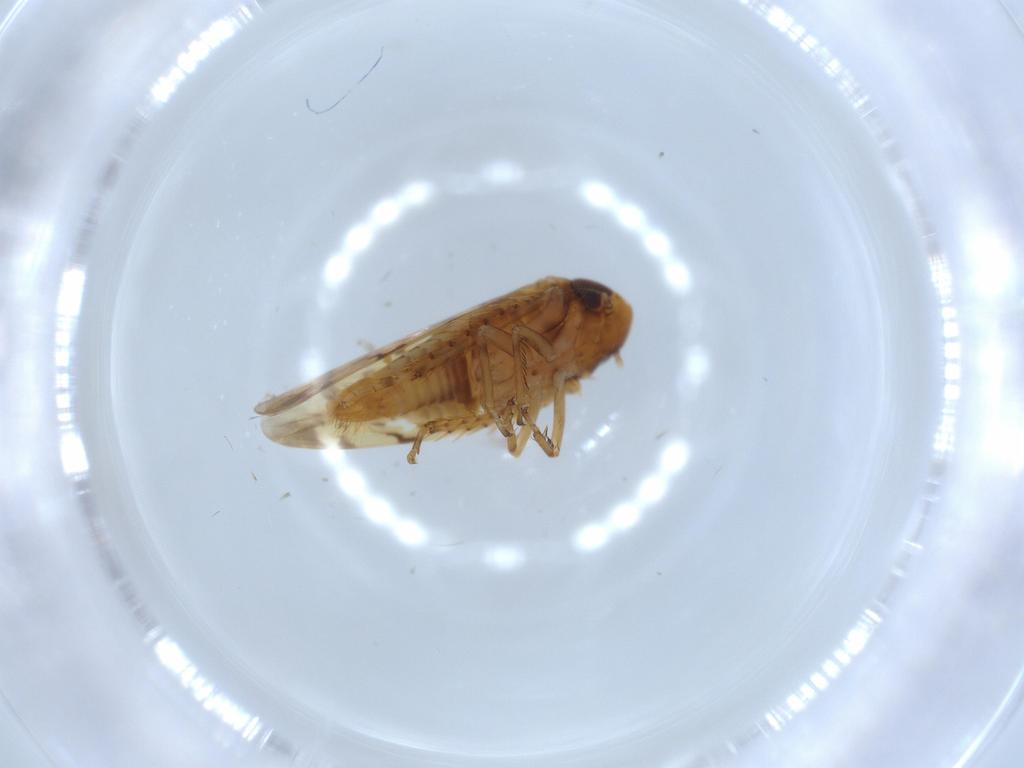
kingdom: Animalia
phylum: Arthropoda
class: Insecta
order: Hemiptera
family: Cicadellidae
